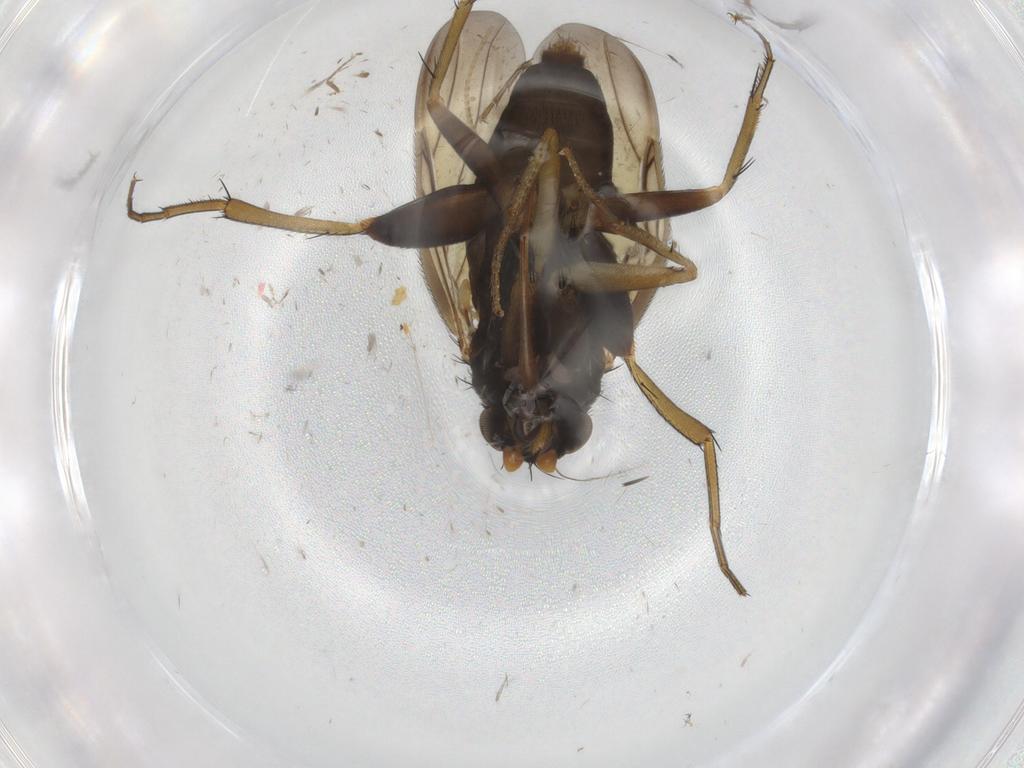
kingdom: Animalia
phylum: Arthropoda
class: Insecta
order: Diptera
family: Phoridae
